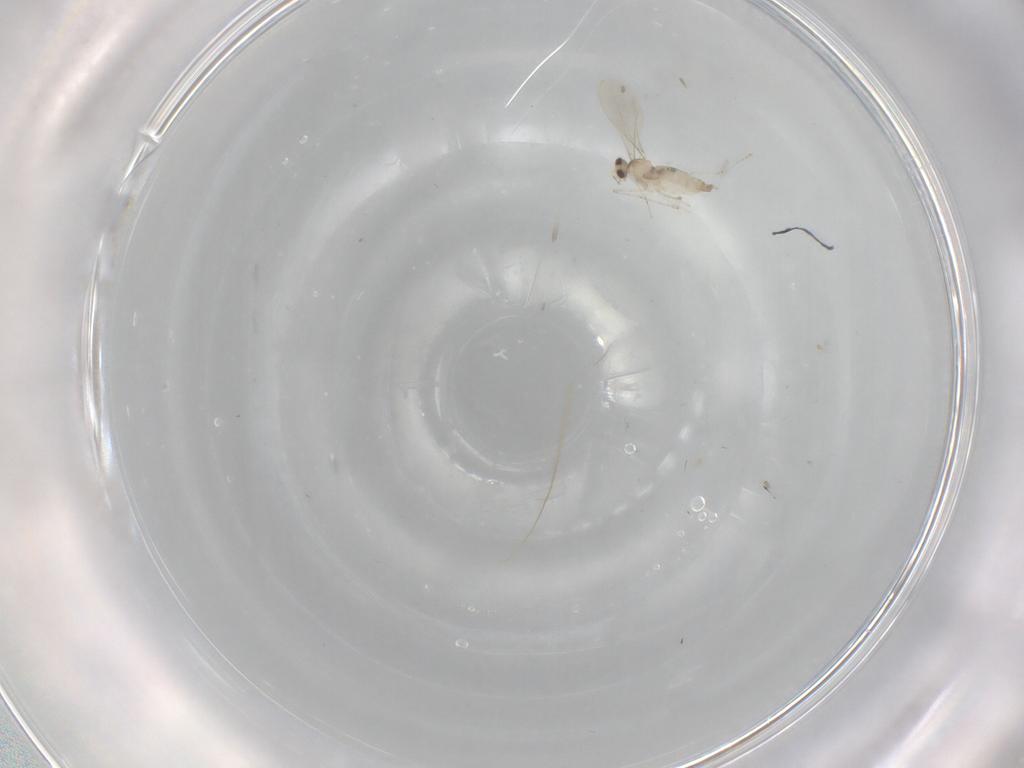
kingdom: Animalia
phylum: Arthropoda
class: Insecta
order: Diptera
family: Cecidomyiidae
